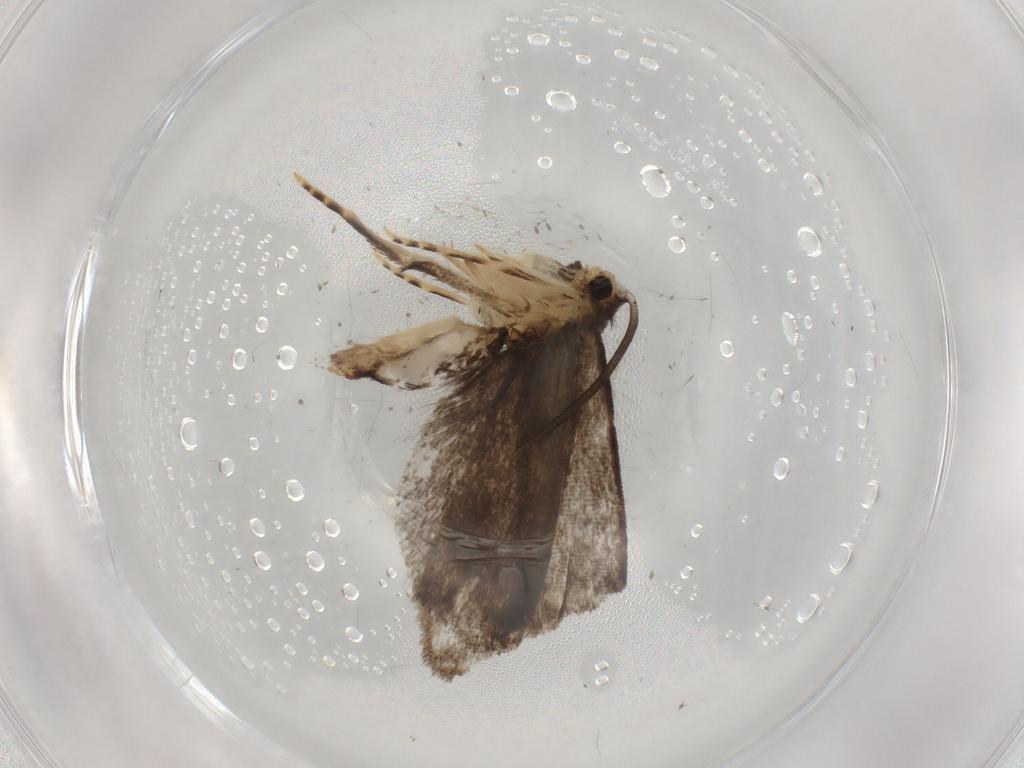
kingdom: Animalia
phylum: Arthropoda
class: Insecta
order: Lepidoptera
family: Dryadaulidae
